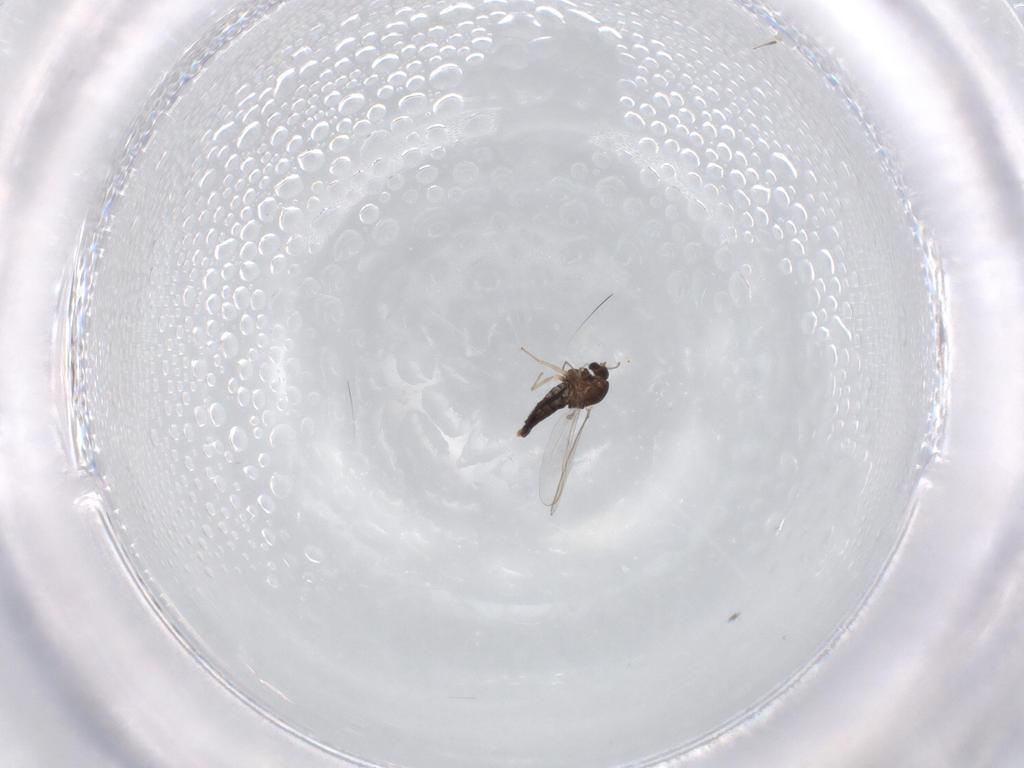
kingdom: Animalia
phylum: Arthropoda
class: Insecta
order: Diptera
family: Chironomidae
